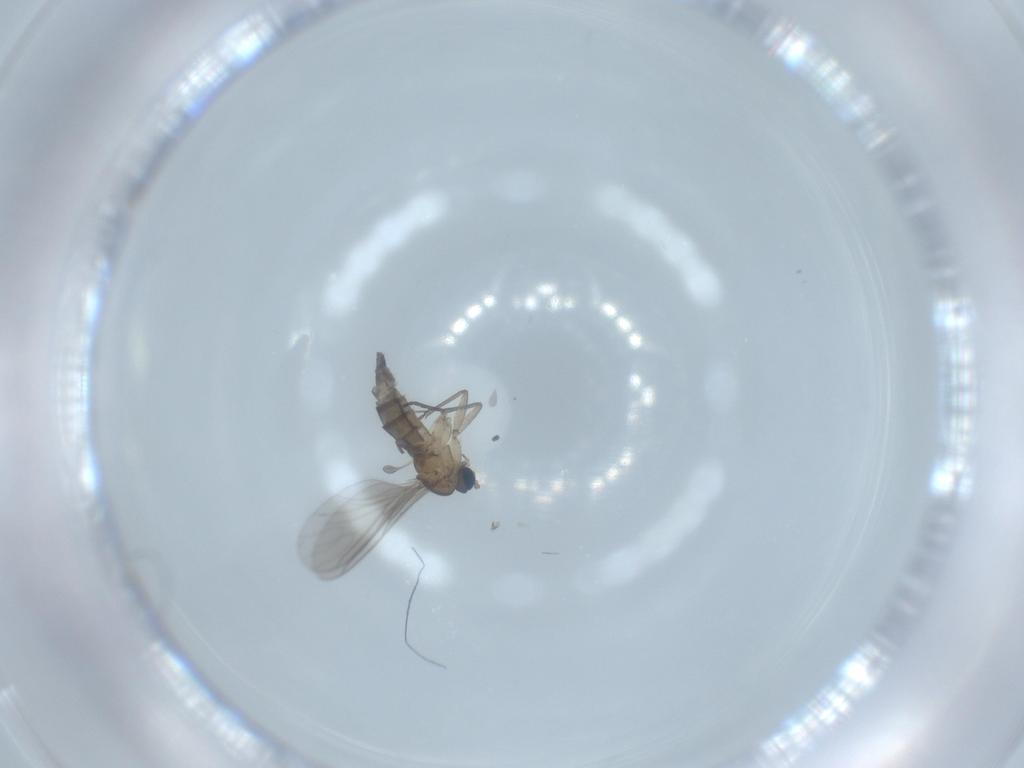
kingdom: Animalia
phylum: Arthropoda
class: Insecta
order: Diptera
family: Sciaridae
